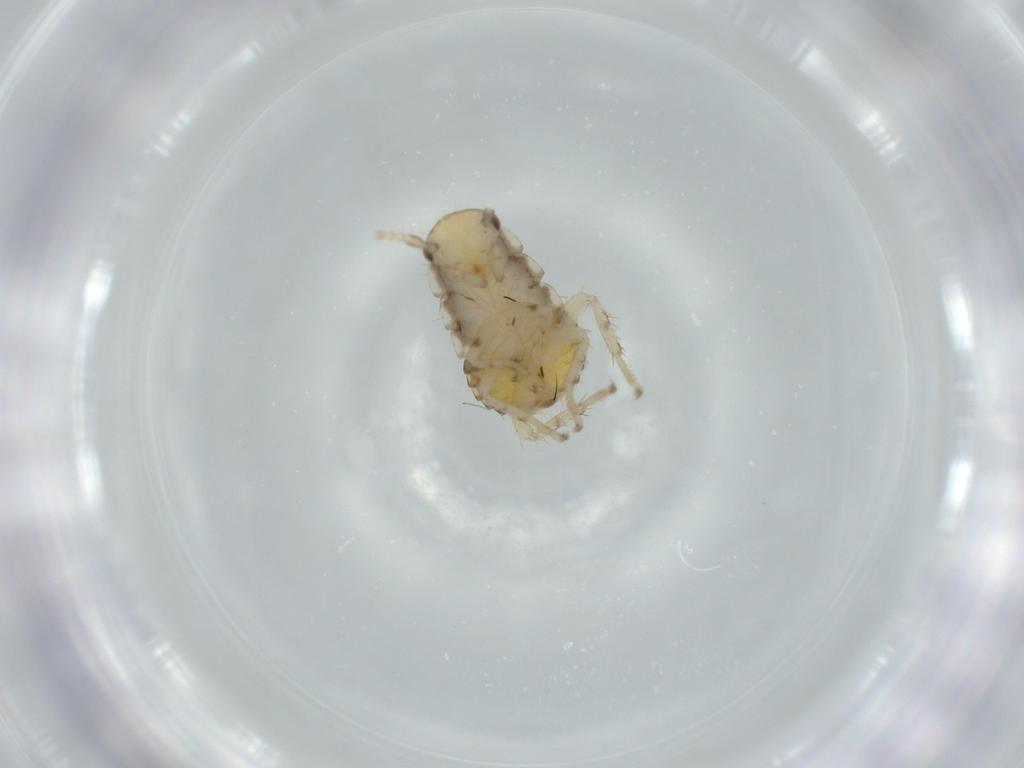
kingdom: Animalia
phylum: Arthropoda
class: Insecta
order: Blattodea
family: Ectobiidae
